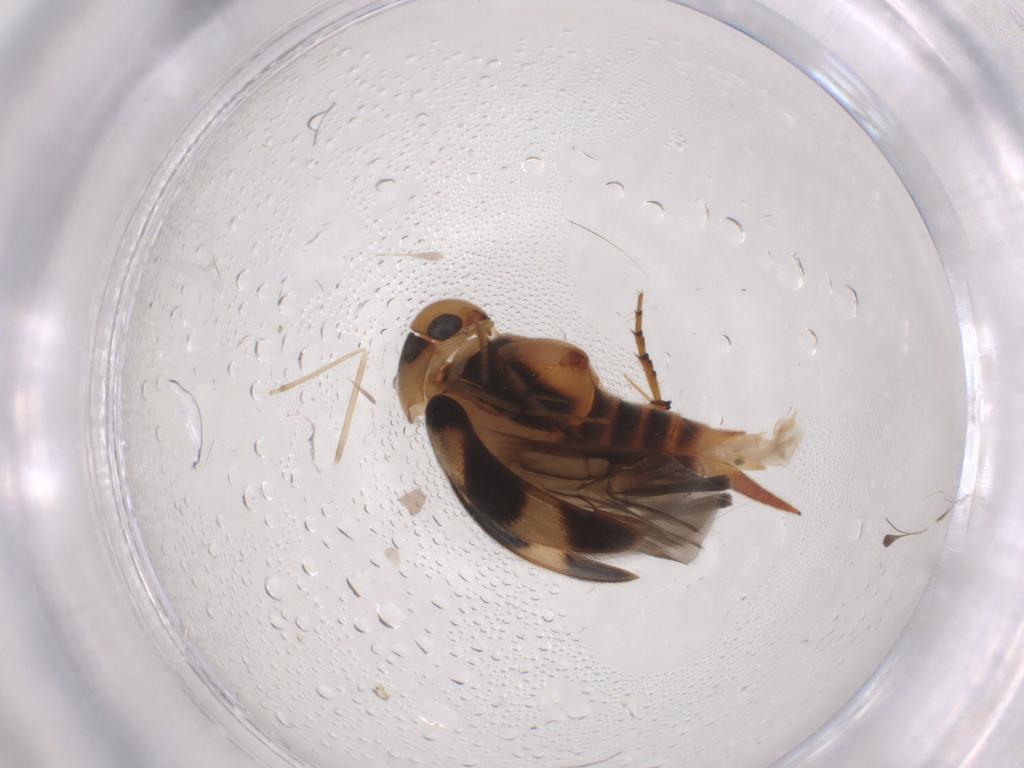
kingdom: Animalia
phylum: Arthropoda
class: Insecta
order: Coleoptera
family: Mordellidae
